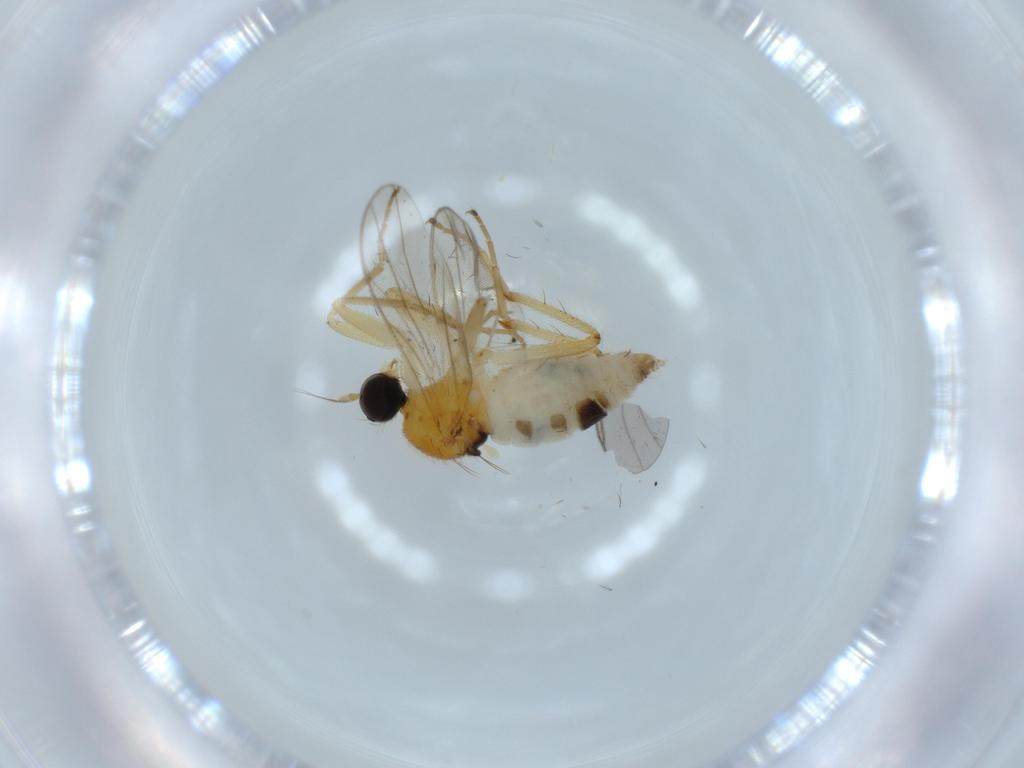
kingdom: Animalia
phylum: Arthropoda
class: Insecta
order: Diptera
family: Hybotidae
